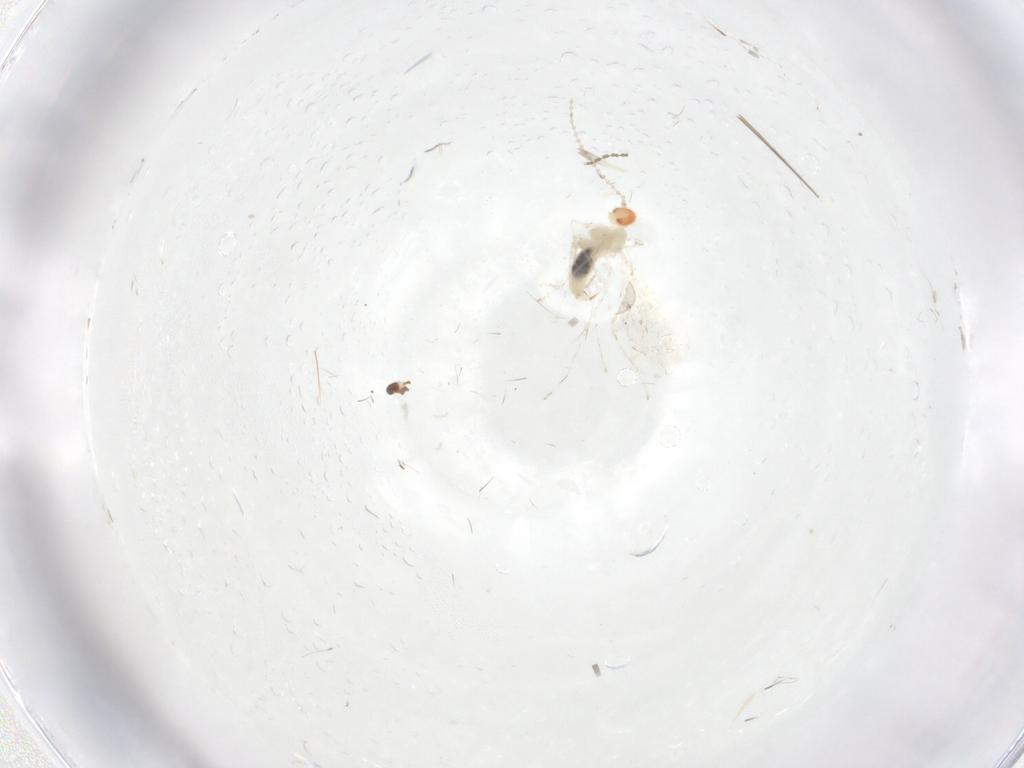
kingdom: Animalia
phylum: Arthropoda
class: Insecta
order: Diptera
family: Cecidomyiidae
